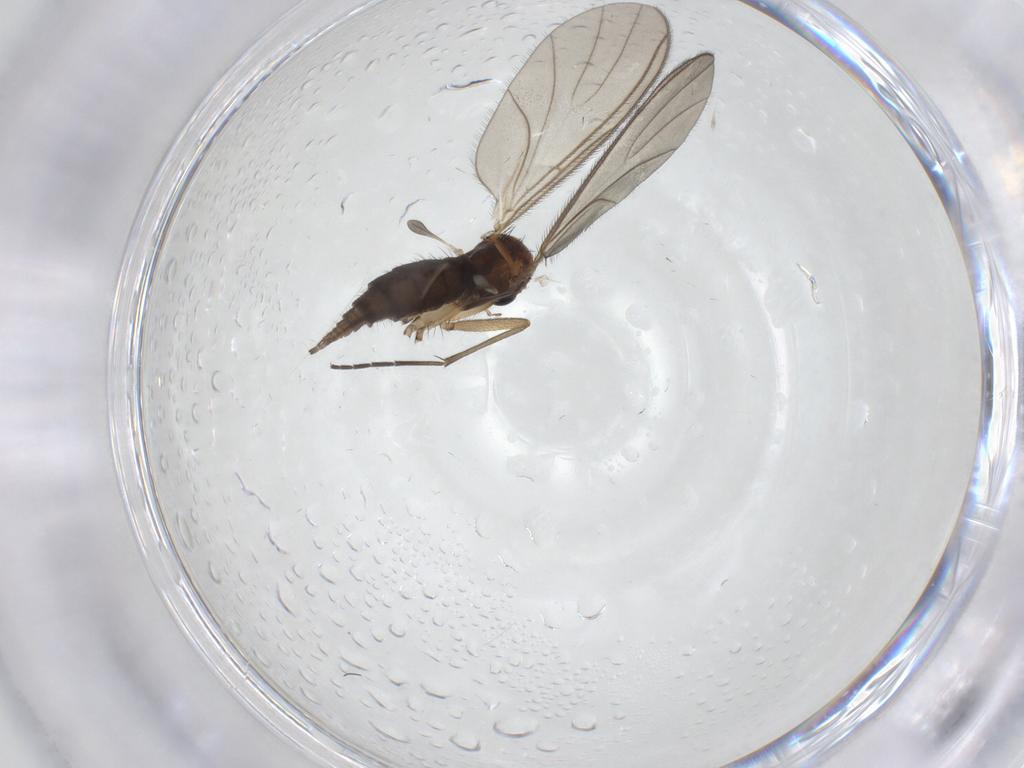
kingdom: Animalia
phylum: Arthropoda
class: Insecta
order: Diptera
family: Sciaridae
